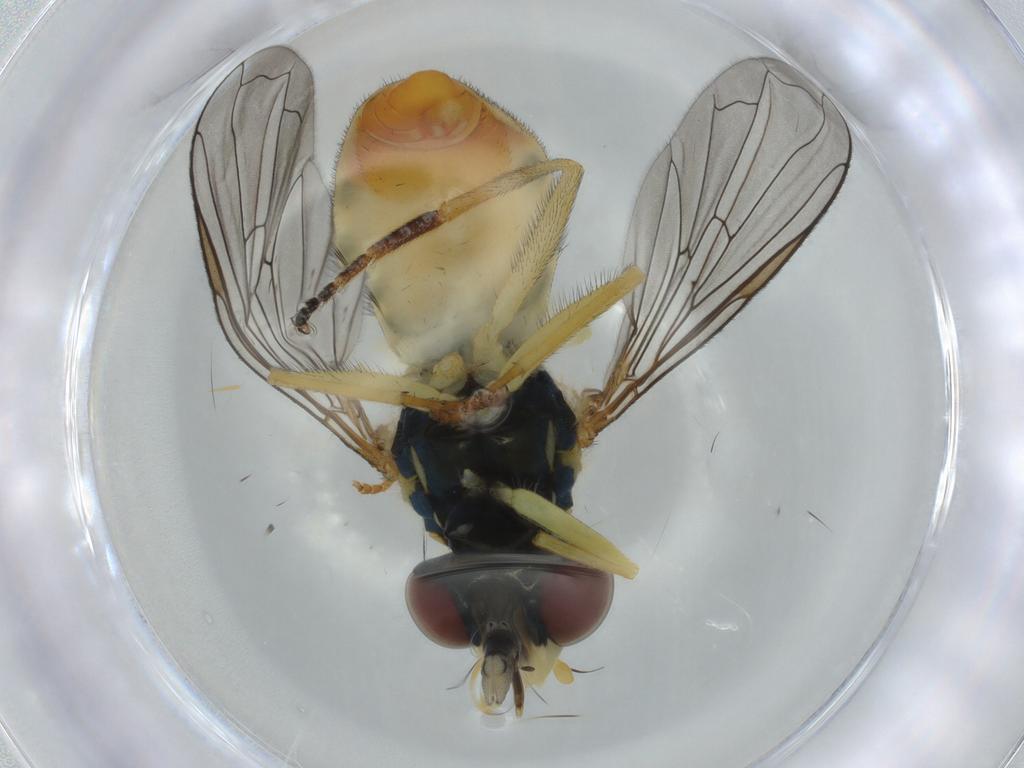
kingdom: Animalia
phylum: Arthropoda
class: Insecta
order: Diptera
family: Syrphidae
